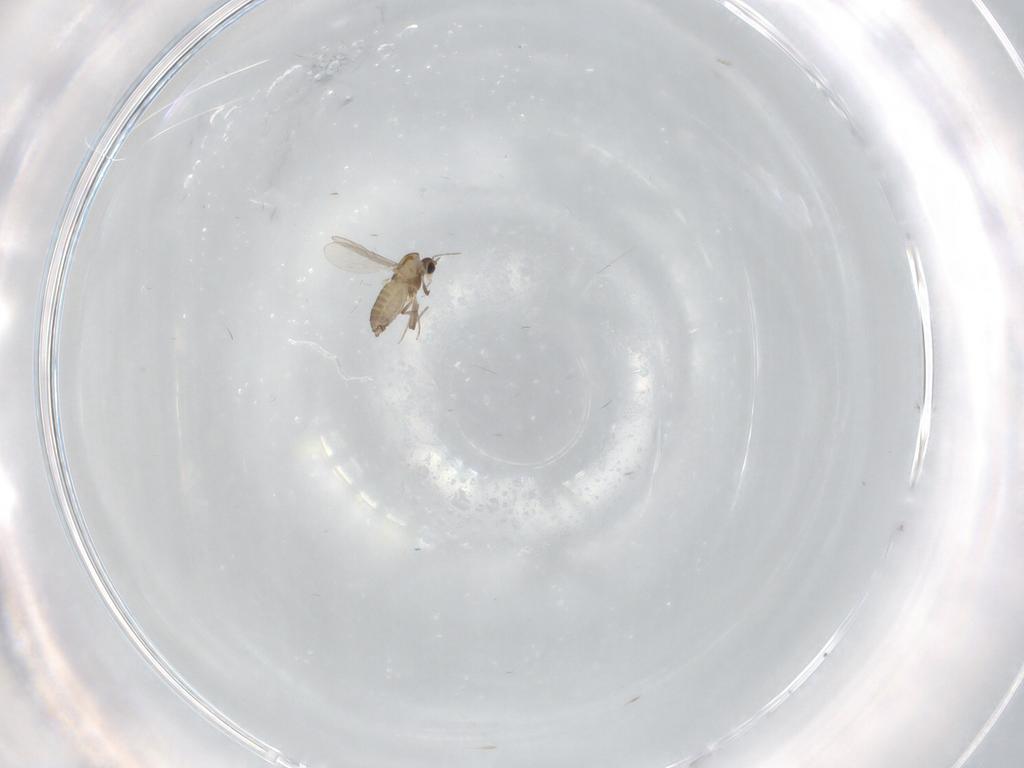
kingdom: Animalia
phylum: Arthropoda
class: Insecta
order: Diptera
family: Chironomidae
